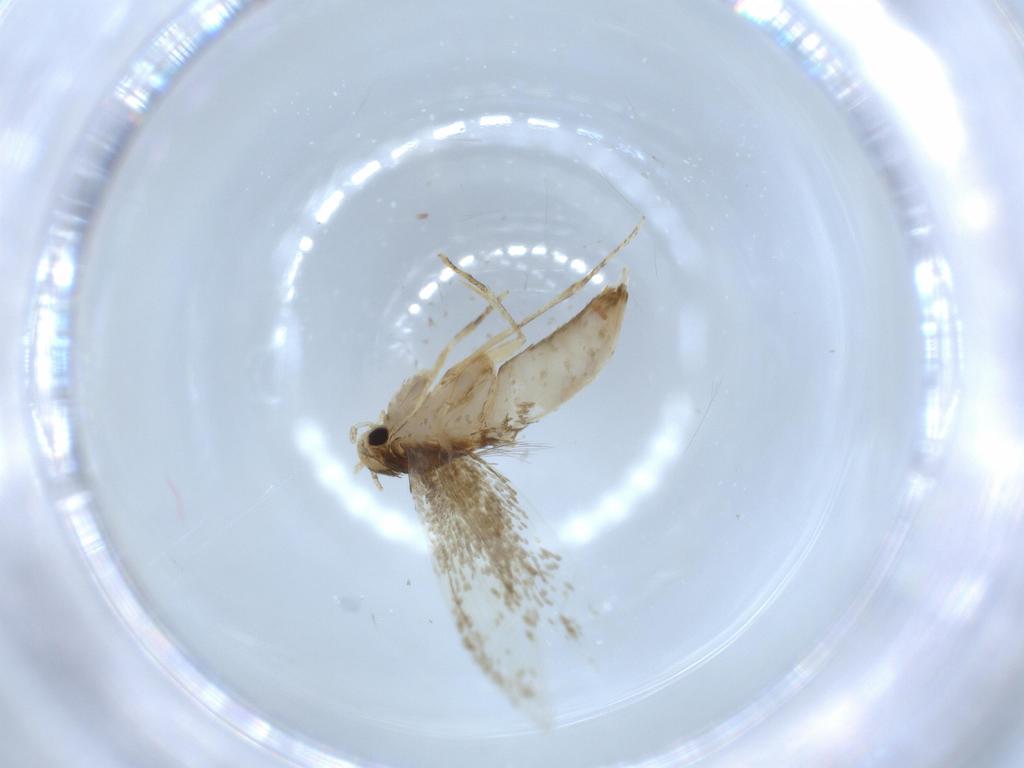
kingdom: Animalia
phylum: Arthropoda
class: Insecta
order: Lepidoptera
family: Tineidae
